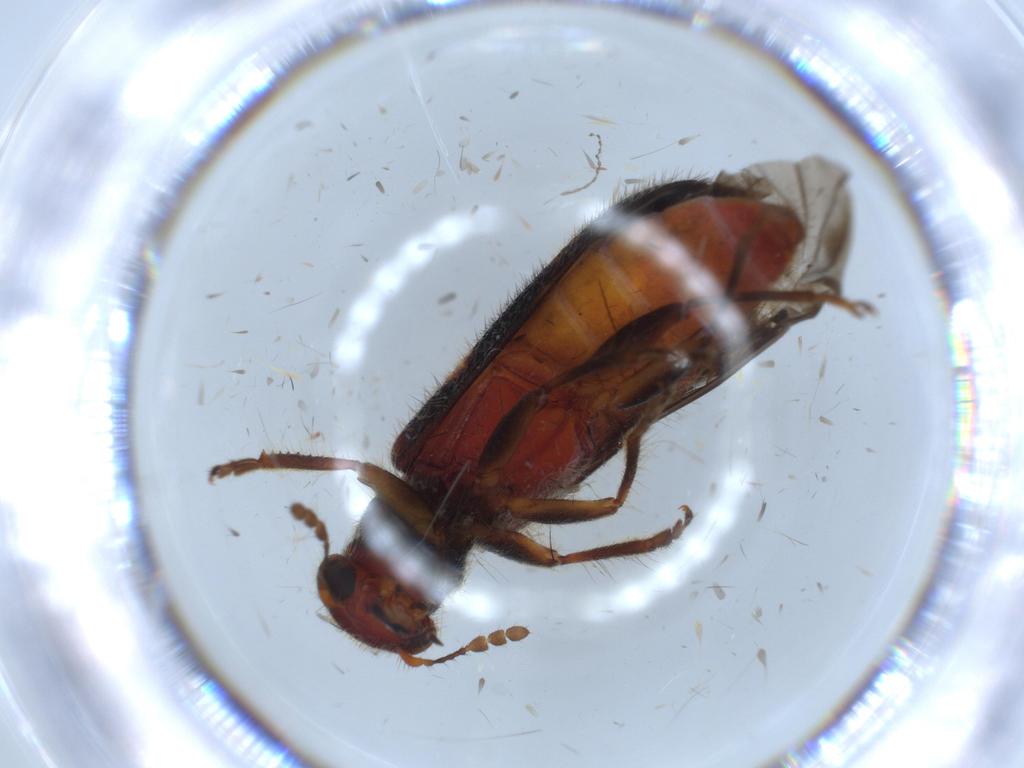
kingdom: Animalia
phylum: Arthropoda
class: Insecta
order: Coleoptera
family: Cleridae
